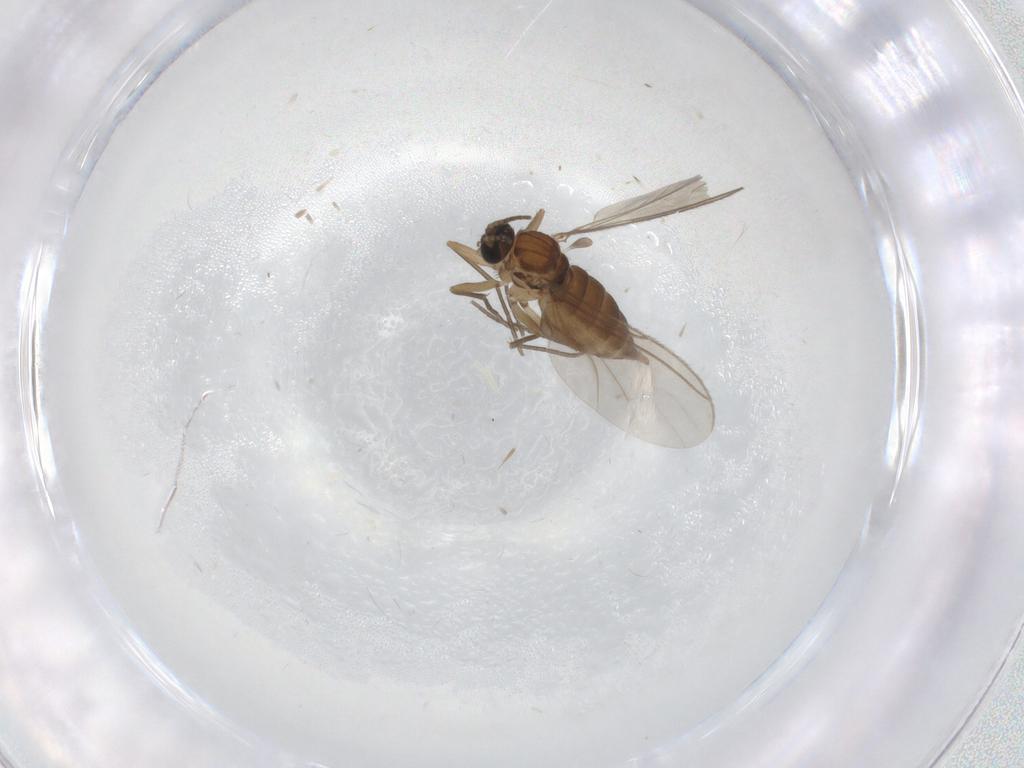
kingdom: Animalia
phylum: Arthropoda
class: Insecta
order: Diptera
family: Sciaridae
